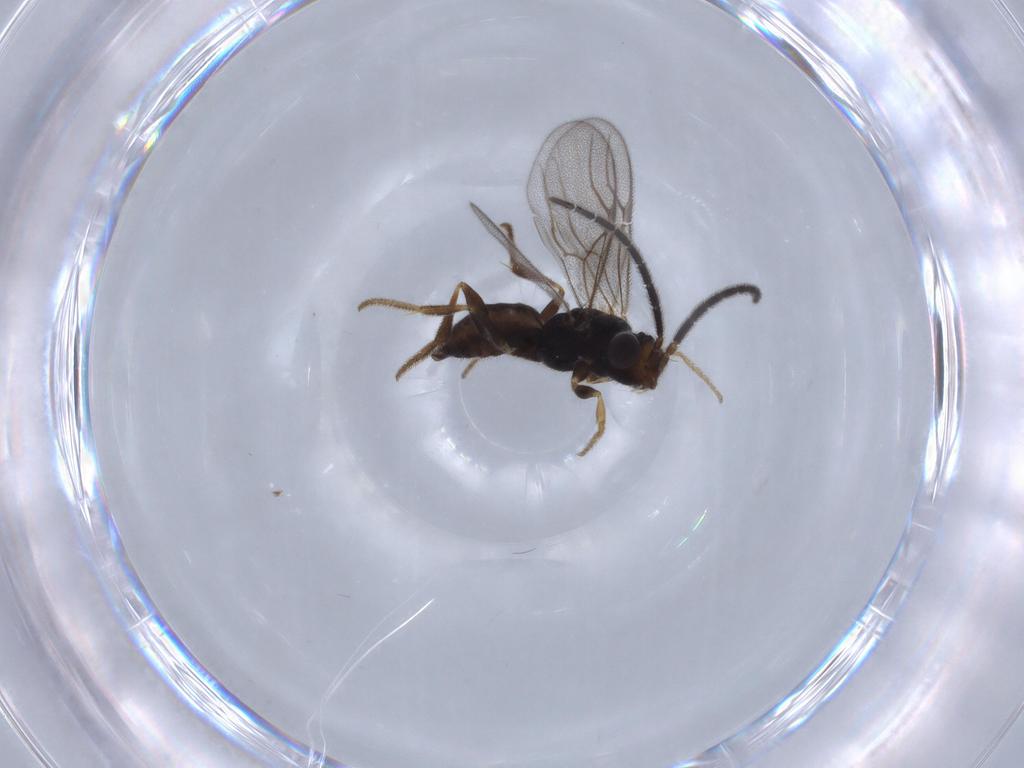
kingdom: Animalia
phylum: Arthropoda
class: Insecta
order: Hymenoptera
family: Dryinidae
